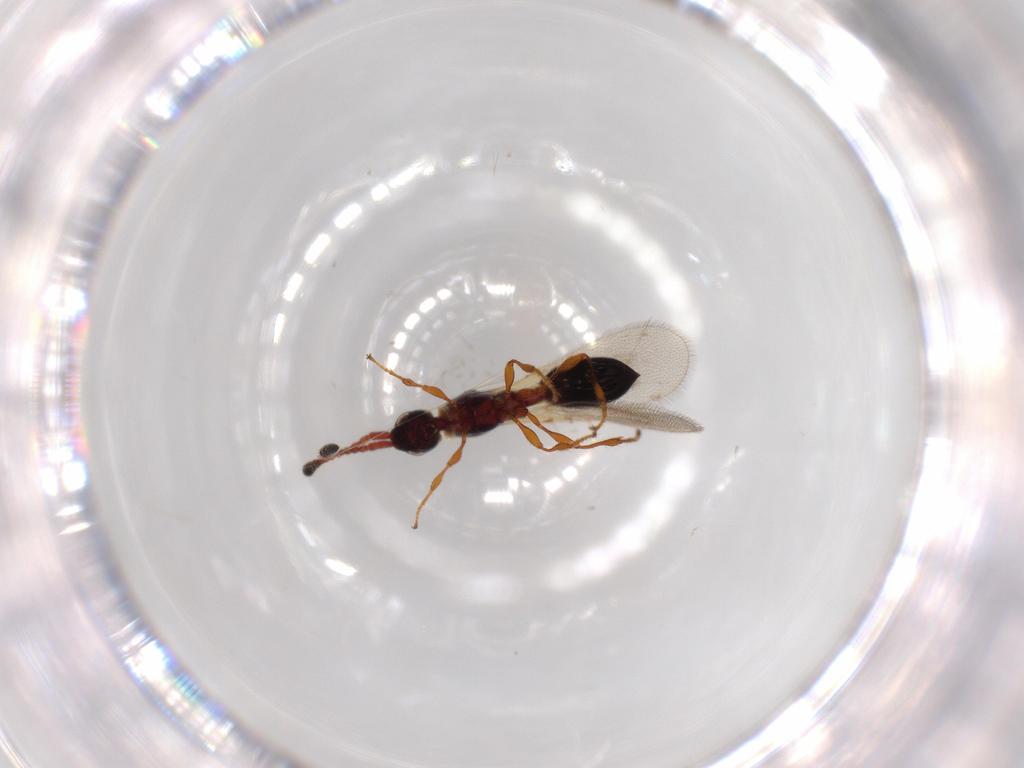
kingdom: Animalia
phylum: Arthropoda
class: Insecta
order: Hymenoptera
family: Diapriidae
